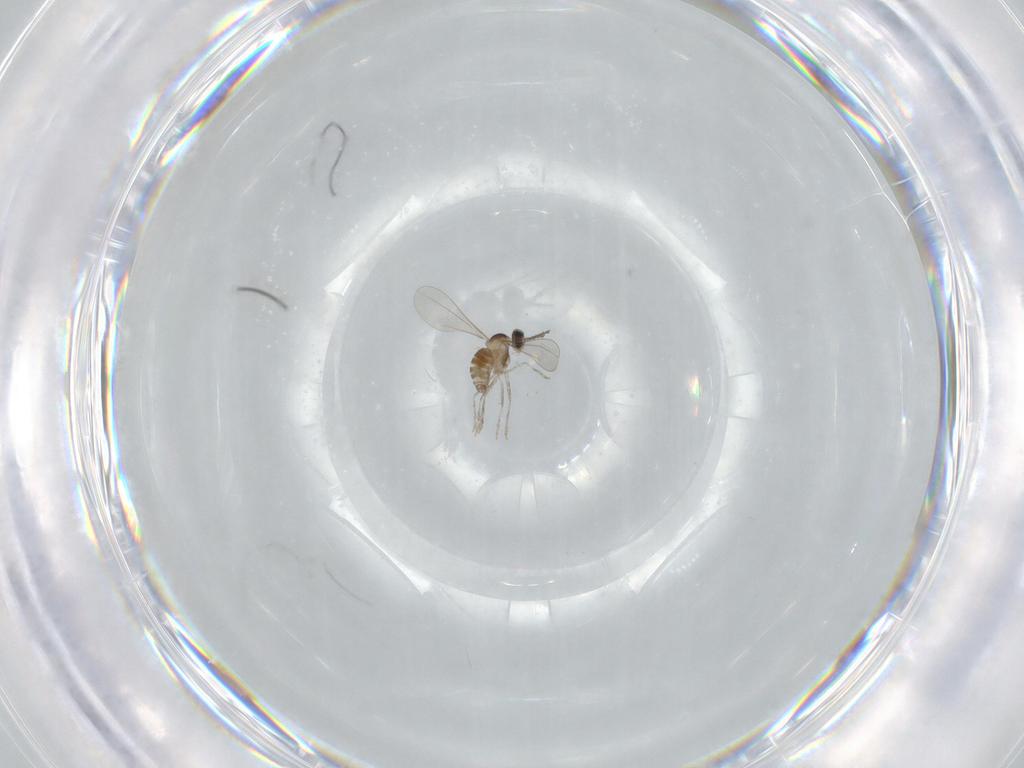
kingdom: Animalia
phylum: Arthropoda
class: Insecta
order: Diptera
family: Cecidomyiidae
